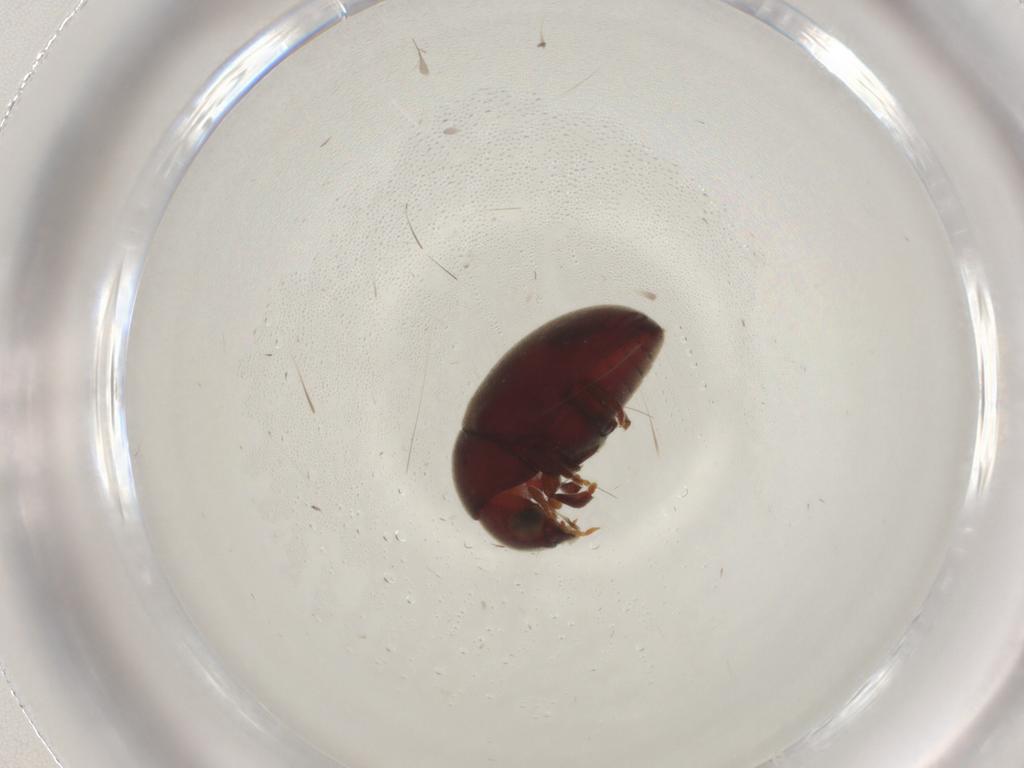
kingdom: Animalia
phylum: Arthropoda
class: Insecta
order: Coleoptera
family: Ptinidae
